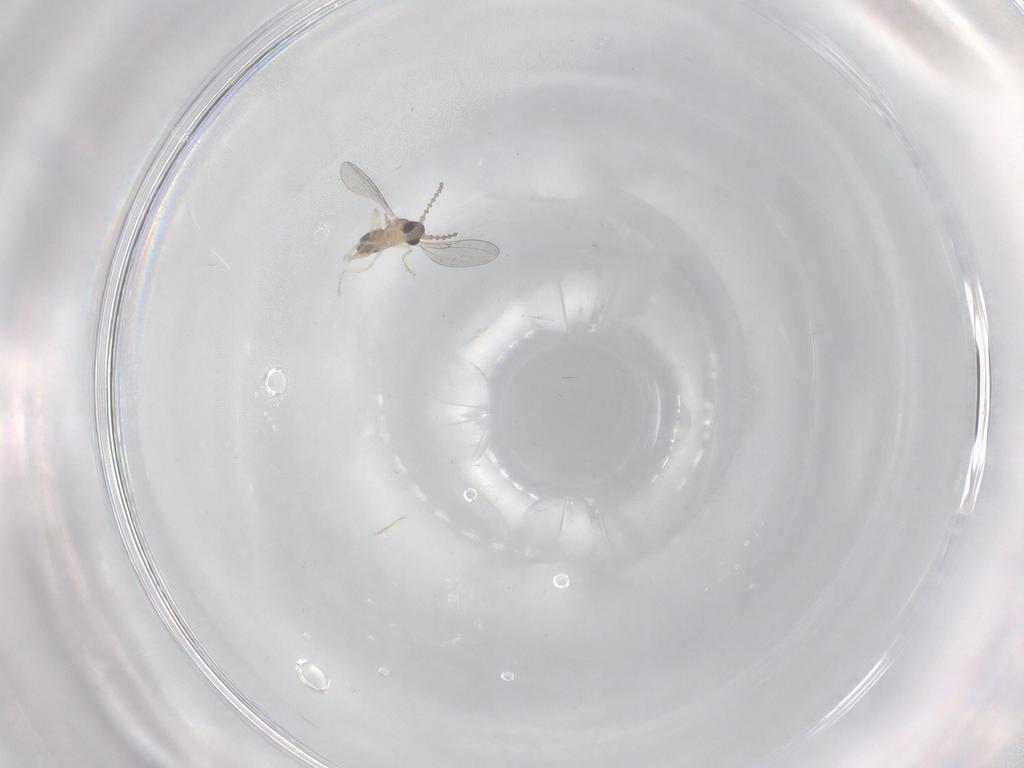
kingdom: Animalia
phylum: Arthropoda
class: Insecta
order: Diptera
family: Cecidomyiidae
